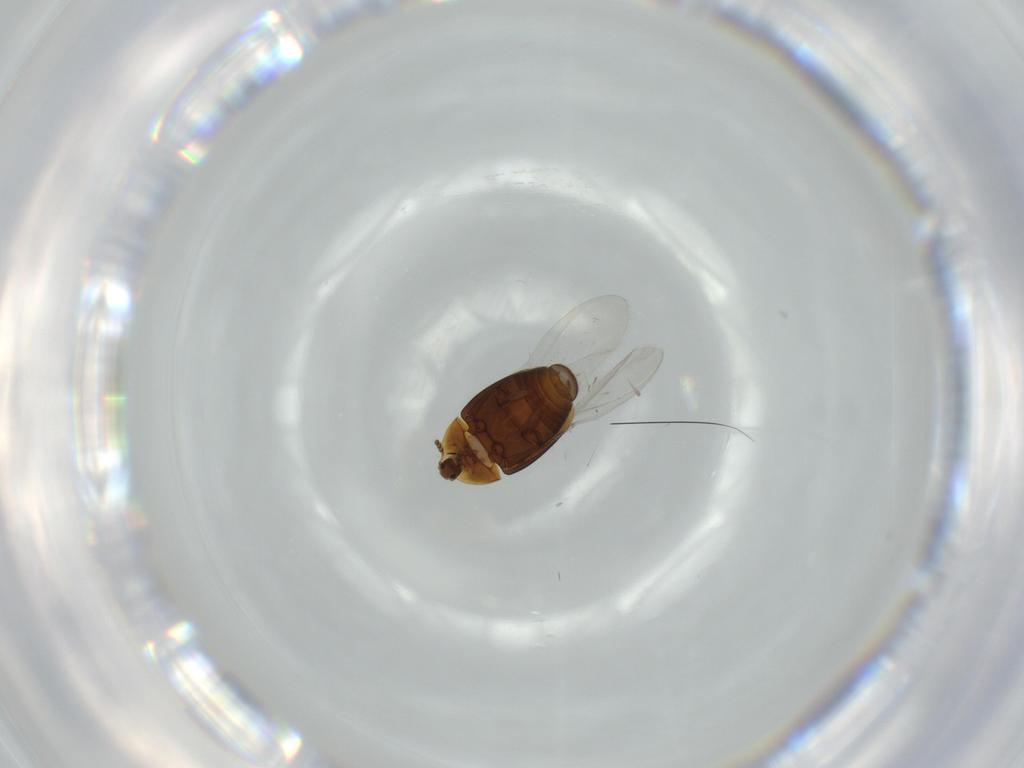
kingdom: Animalia
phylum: Arthropoda
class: Insecta
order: Coleoptera
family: Corylophidae
